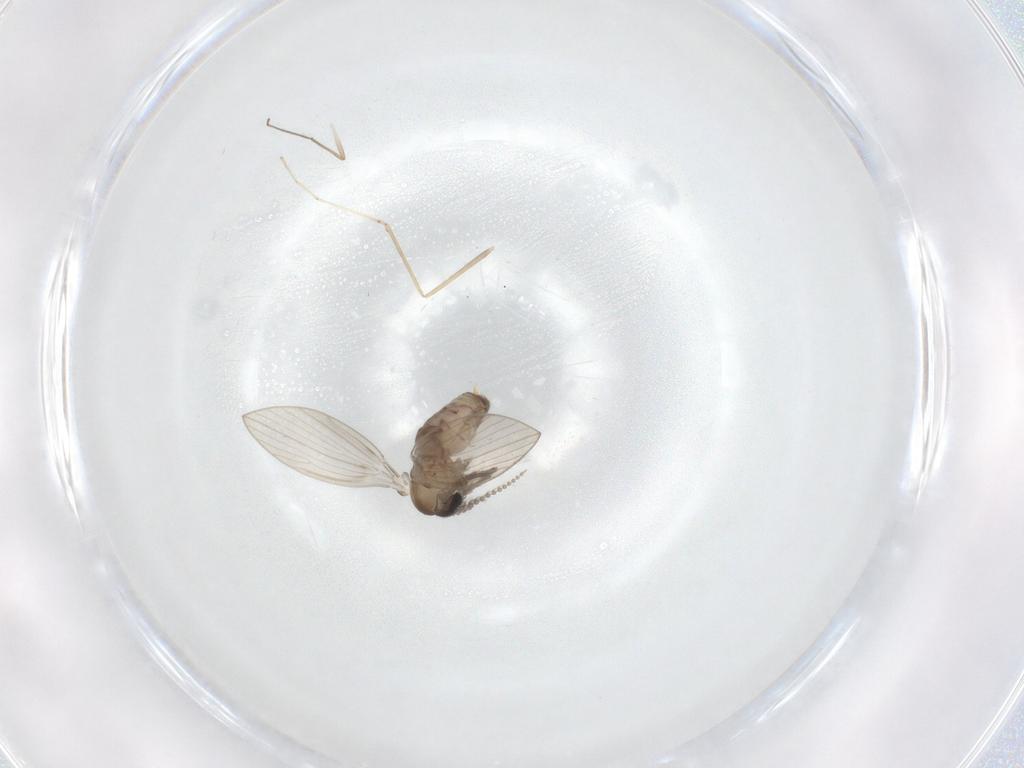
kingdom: Animalia
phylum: Arthropoda
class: Insecta
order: Diptera
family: Psychodidae
